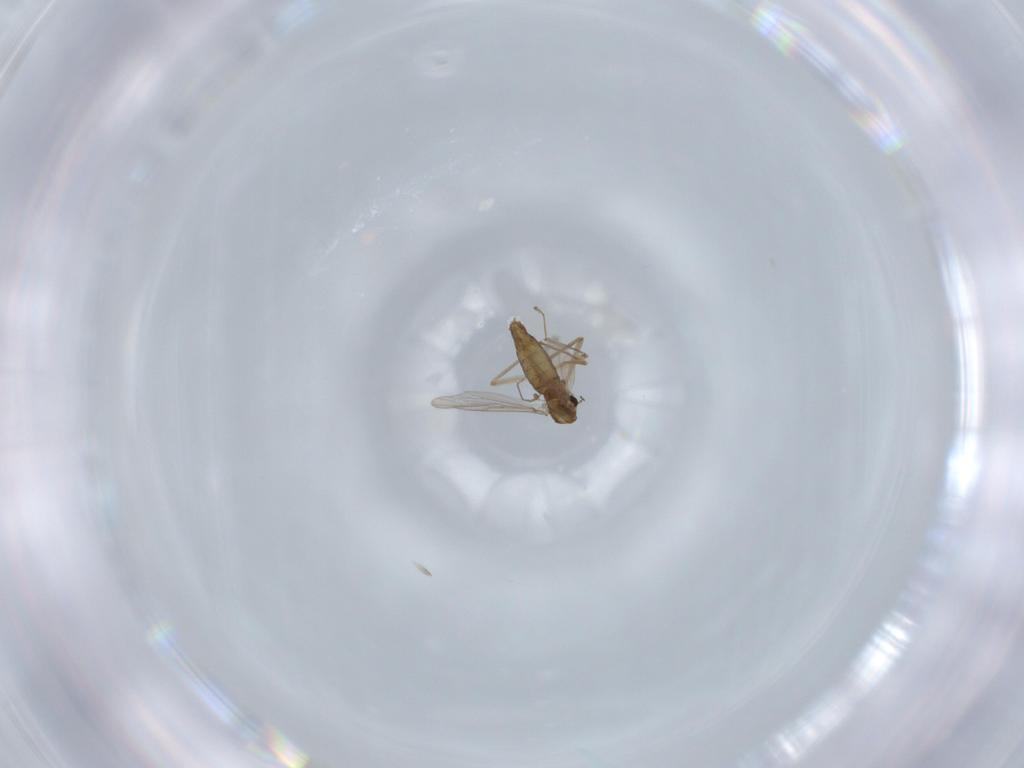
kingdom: Animalia
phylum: Arthropoda
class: Insecta
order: Diptera
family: Chironomidae
